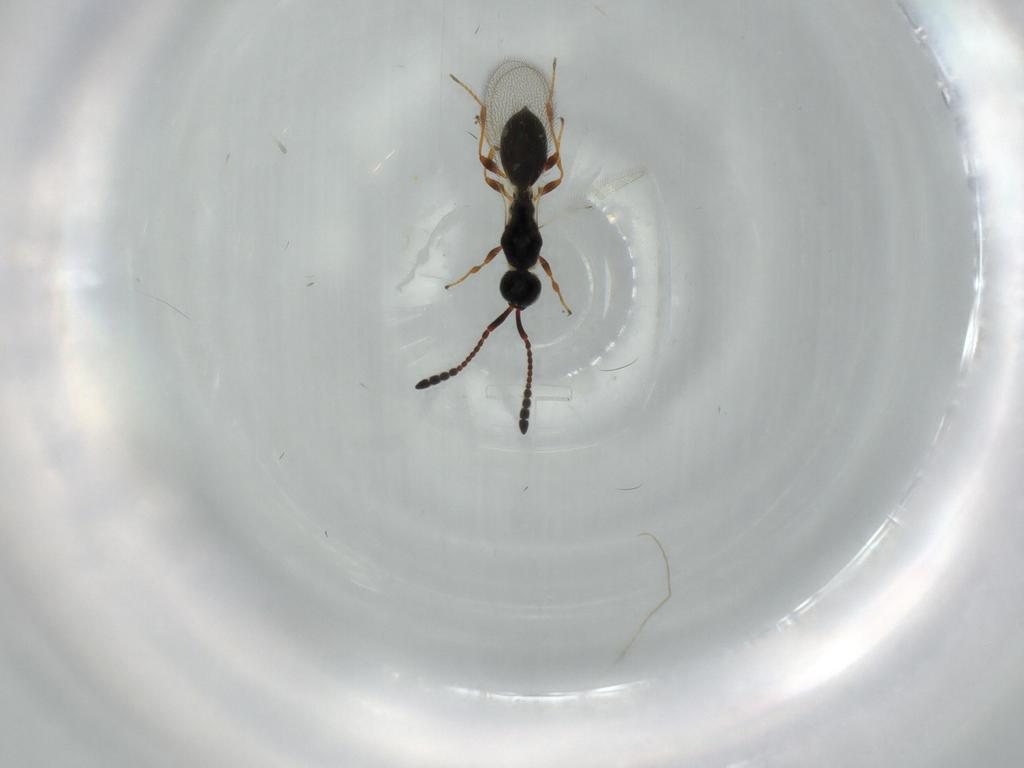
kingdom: Animalia
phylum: Arthropoda
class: Insecta
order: Hymenoptera
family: Diapriidae
